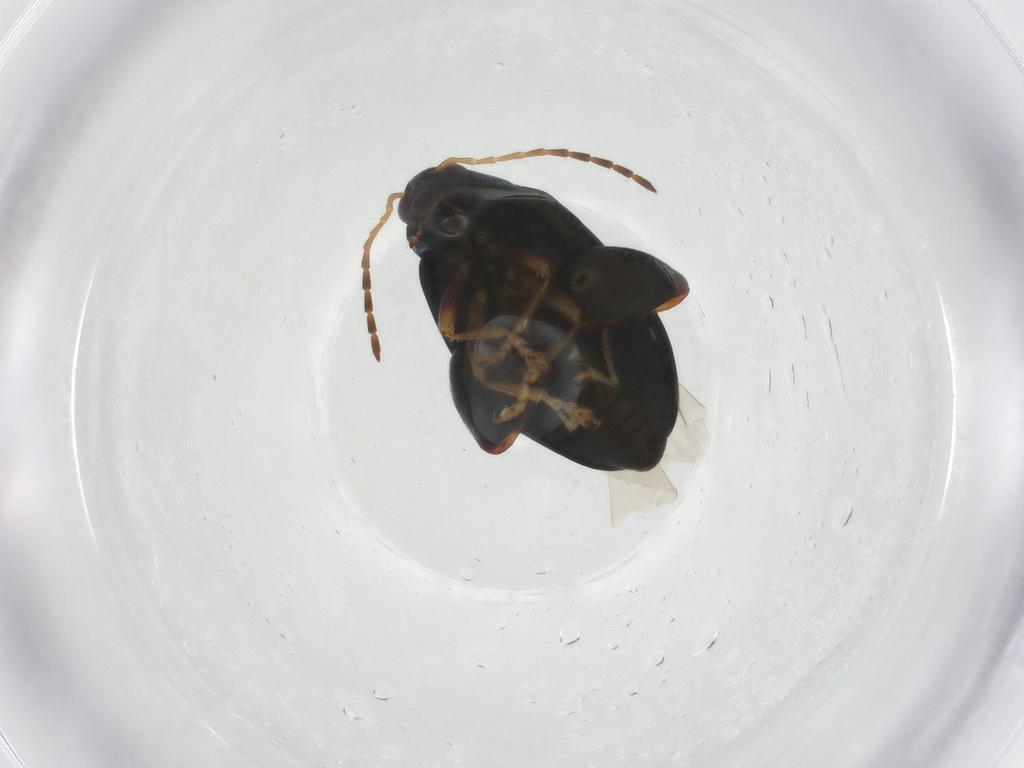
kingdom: Animalia
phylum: Arthropoda
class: Insecta
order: Coleoptera
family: Chrysomelidae
